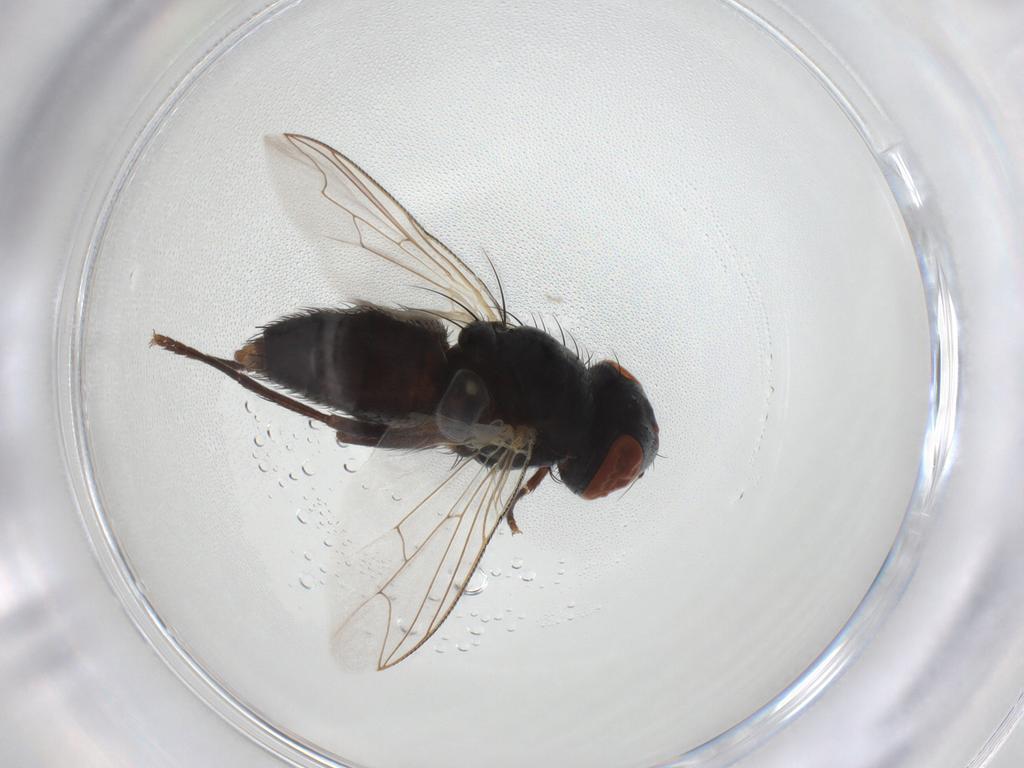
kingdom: Animalia
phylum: Arthropoda
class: Insecta
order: Diptera
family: Sarcophagidae
